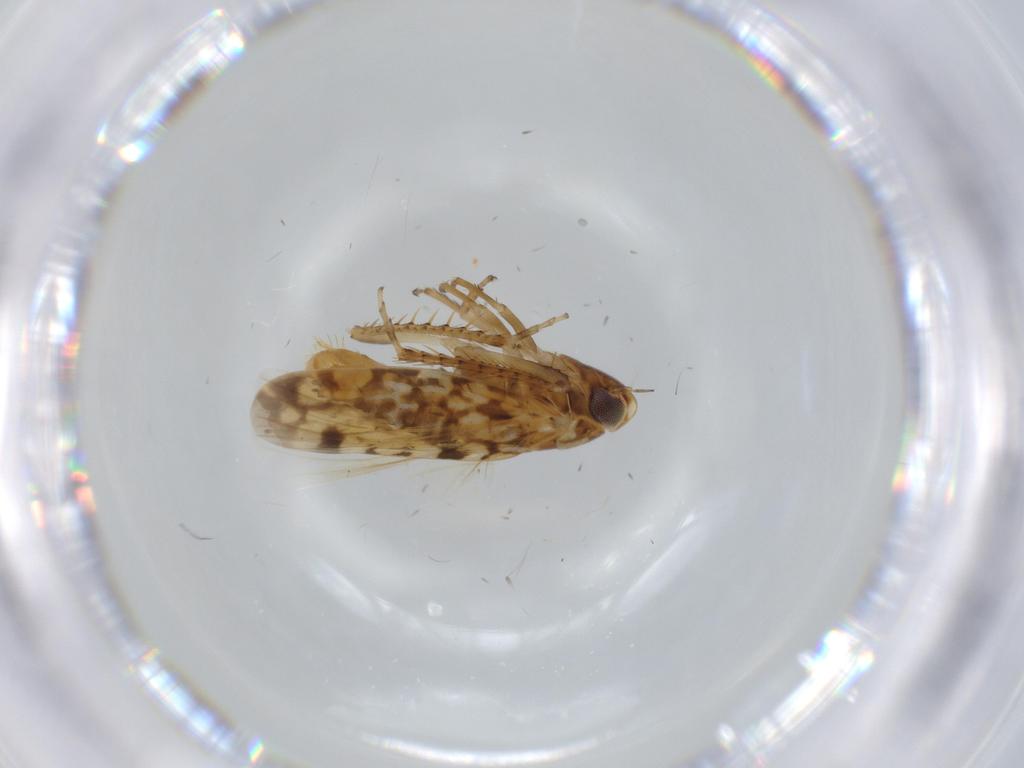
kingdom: Animalia
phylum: Arthropoda
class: Insecta
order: Hemiptera
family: Cicadellidae
